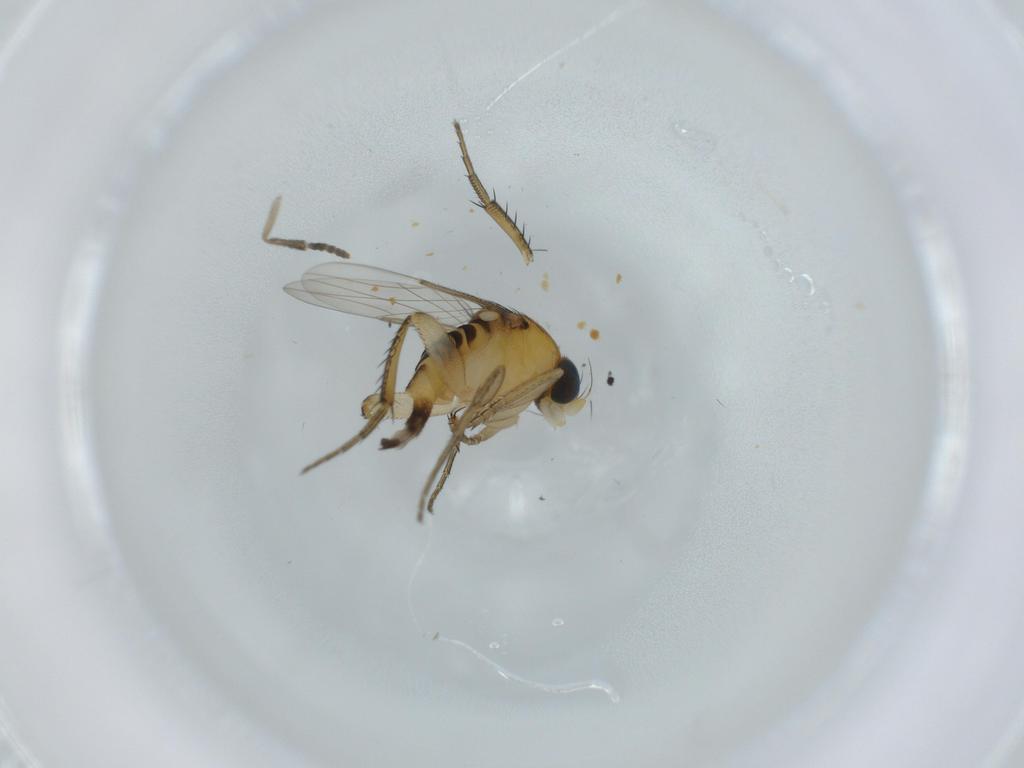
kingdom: Animalia
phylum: Arthropoda
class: Insecta
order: Diptera
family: Phoridae
